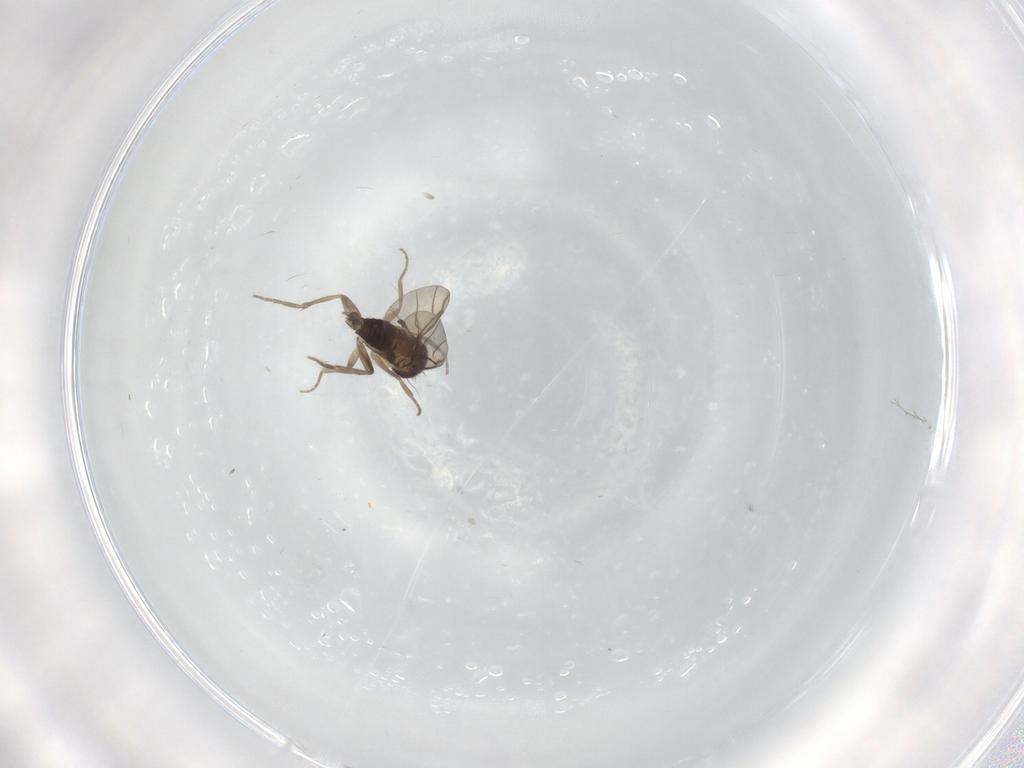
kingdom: Animalia
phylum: Arthropoda
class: Insecta
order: Diptera
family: Phoridae
